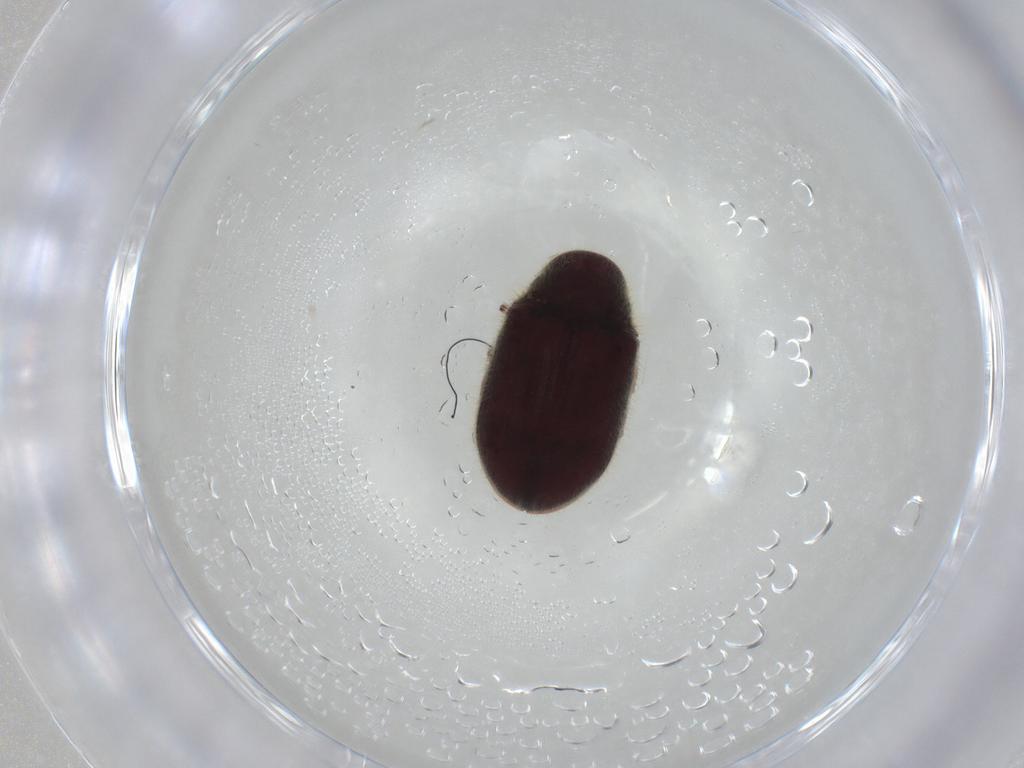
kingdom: Animalia
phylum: Arthropoda
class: Insecta
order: Coleoptera
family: Ptinidae
